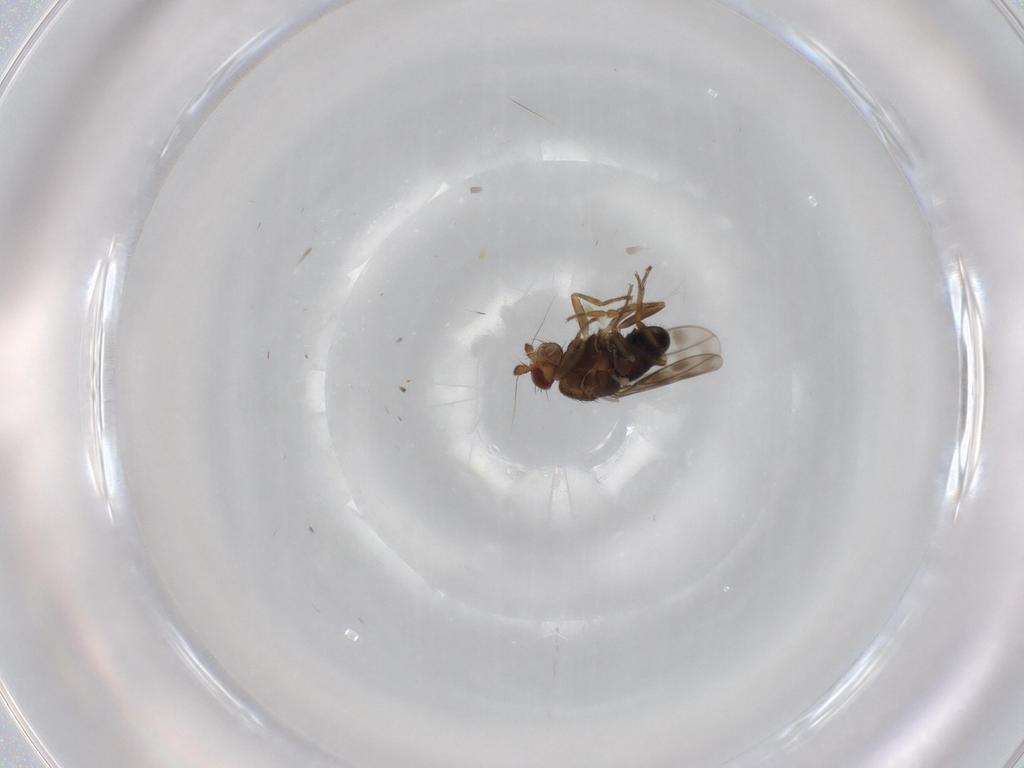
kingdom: Animalia
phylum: Arthropoda
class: Insecta
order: Diptera
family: Sphaeroceridae
